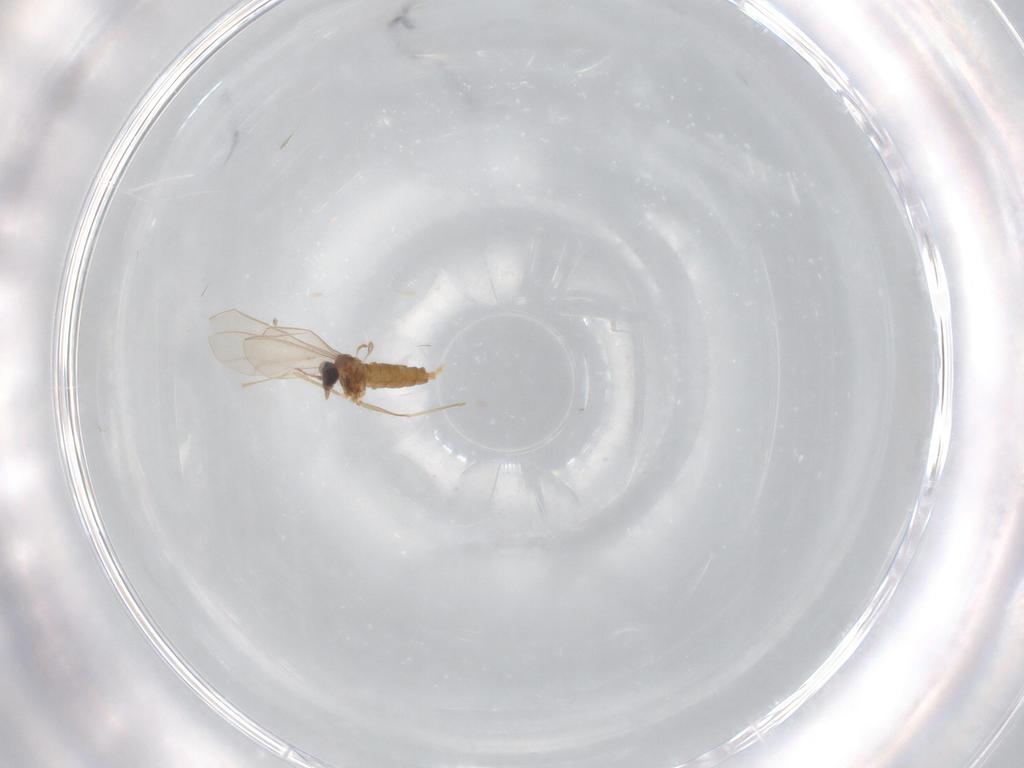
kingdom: Animalia
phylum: Arthropoda
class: Insecta
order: Diptera
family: Cecidomyiidae
